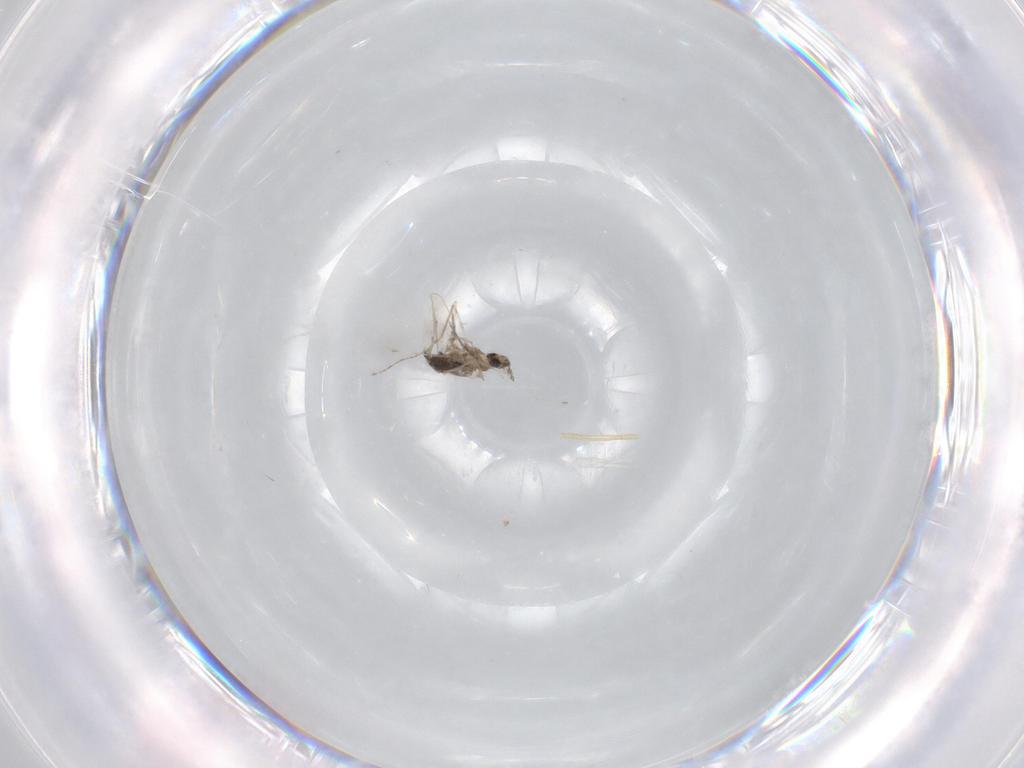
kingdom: Animalia
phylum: Arthropoda
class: Insecta
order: Diptera
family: Cecidomyiidae
